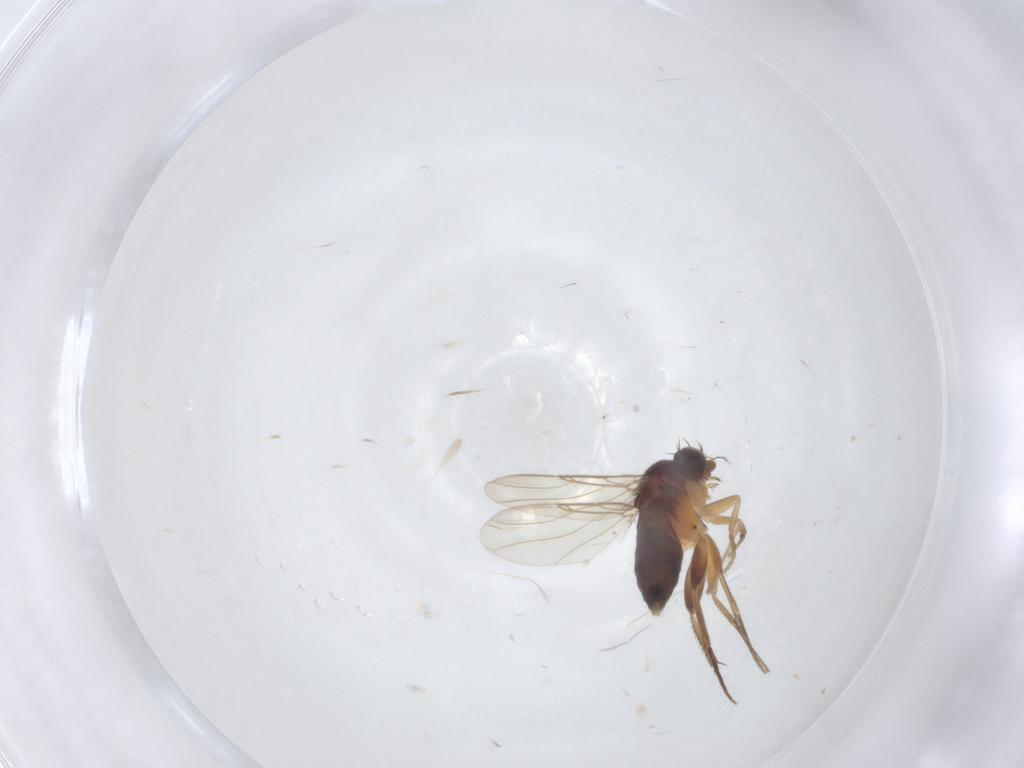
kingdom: Animalia
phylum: Arthropoda
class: Insecta
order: Diptera
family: Phoridae
